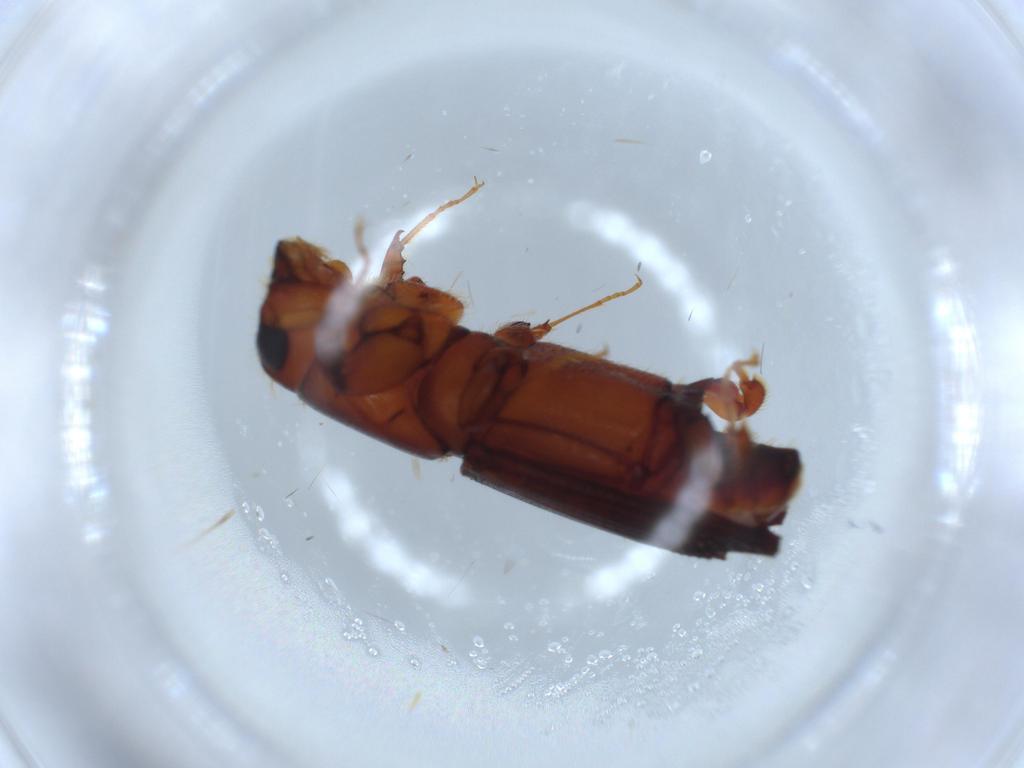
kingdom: Animalia
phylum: Arthropoda
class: Insecta
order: Coleoptera
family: Curculionidae
